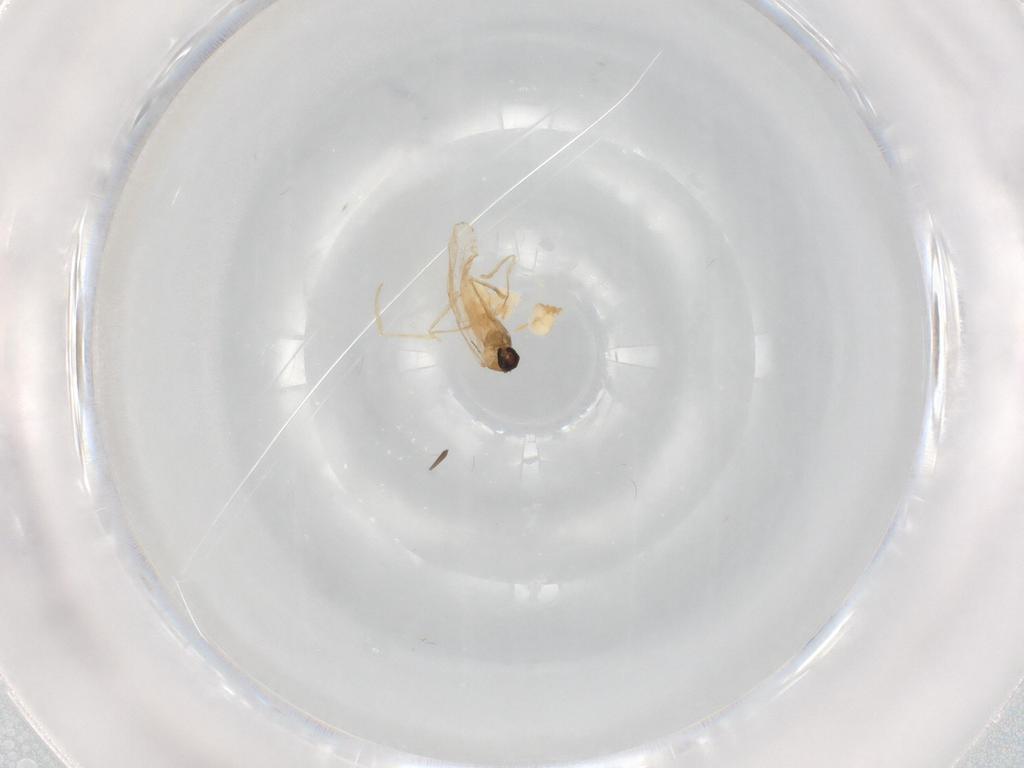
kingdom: Animalia
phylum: Arthropoda
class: Insecta
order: Diptera
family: Cecidomyiidae
